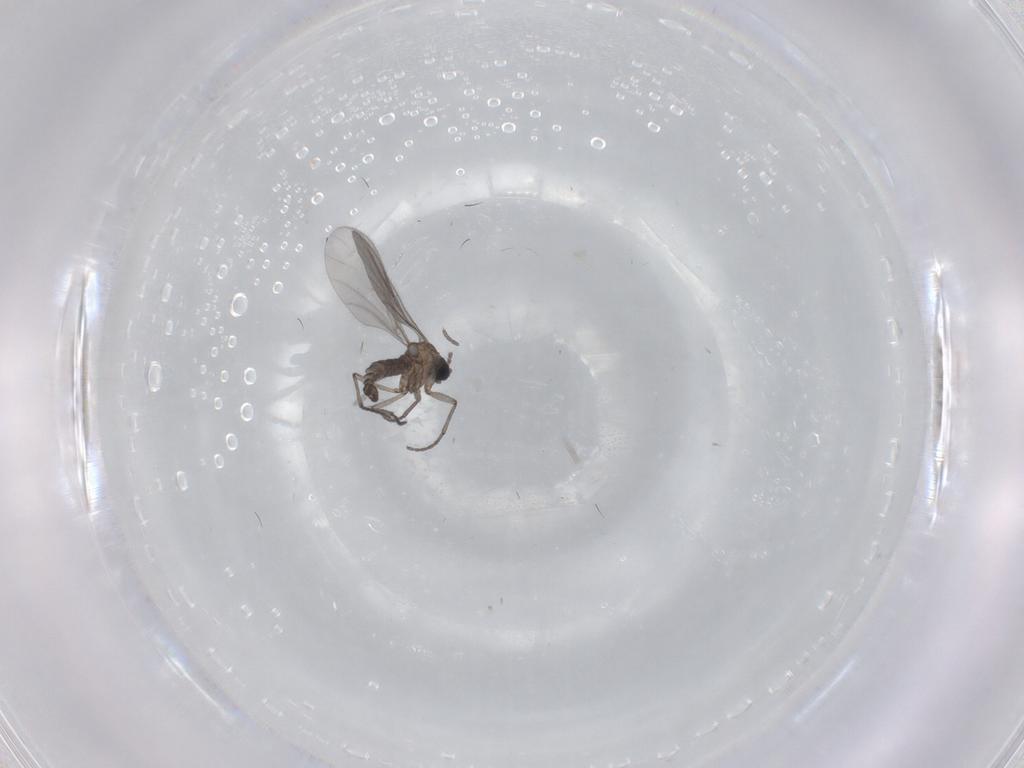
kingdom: Animalia
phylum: Arthropoda
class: Insecta
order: Diptera
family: Sciaridae
